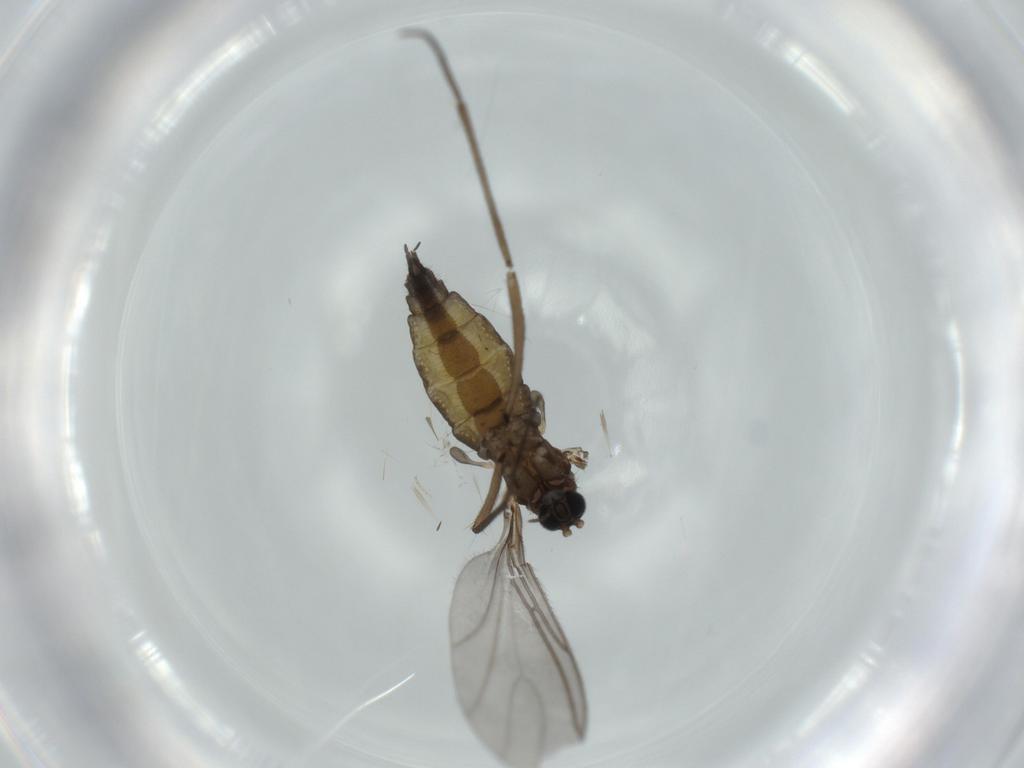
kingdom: Animalia
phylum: Arthropoda
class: Insecta
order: Diptera
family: Sciaridae
